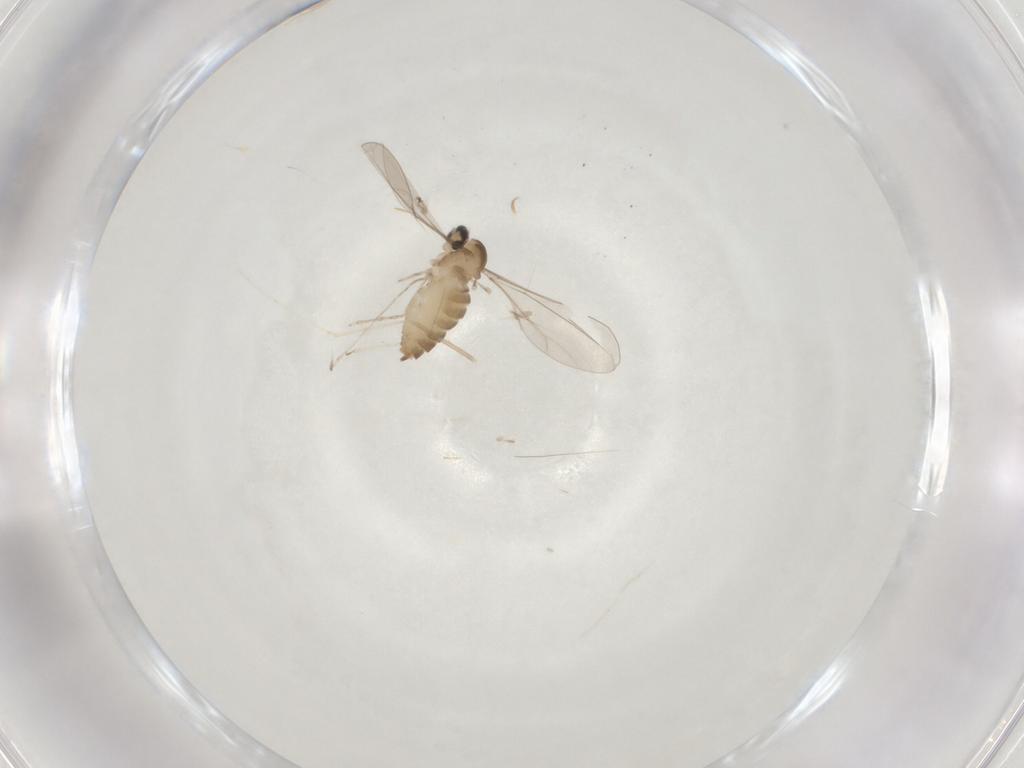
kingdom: Animalia
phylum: Arthropoda
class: Insecta
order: Diptera
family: Cecidomyiidae
